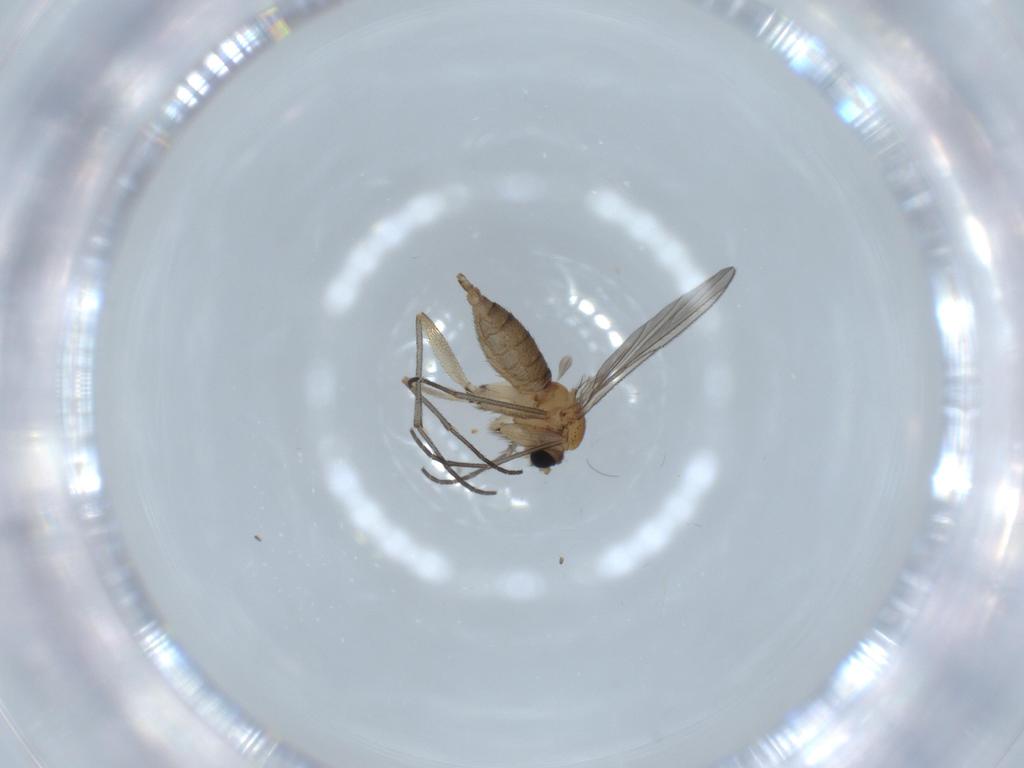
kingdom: Animalia
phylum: Arthropoda
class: Insecta
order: Diptera
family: Sciaridae
